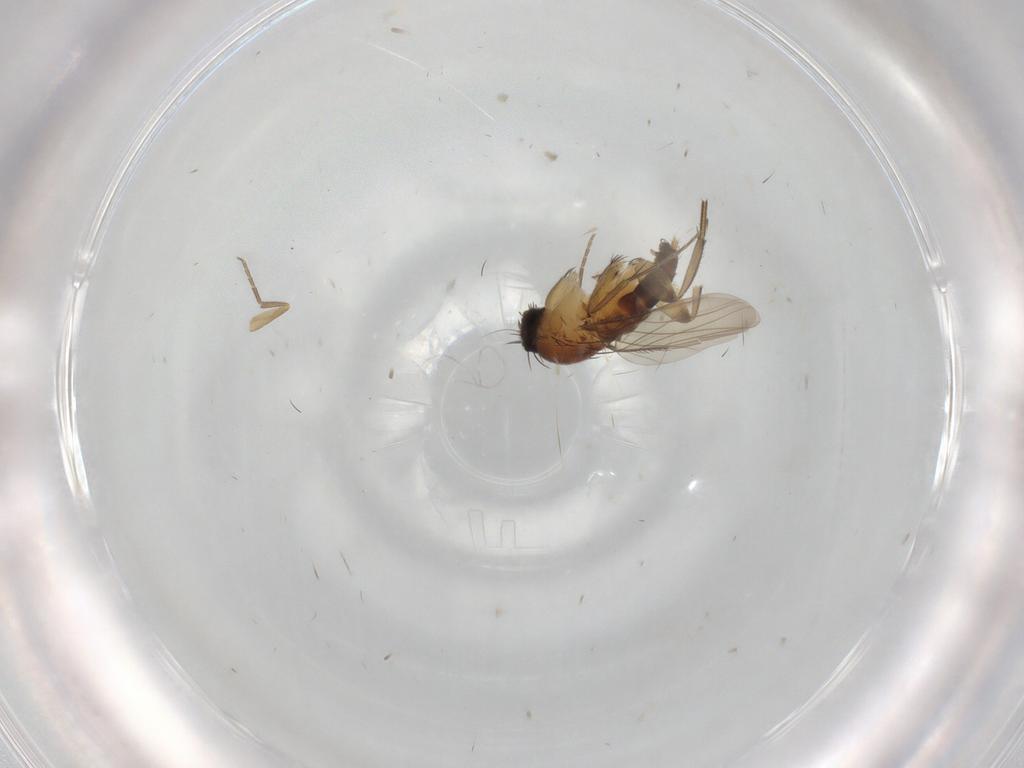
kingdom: Animalia
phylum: Arthropoda
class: Insecta
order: Diptera
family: Phoridae
